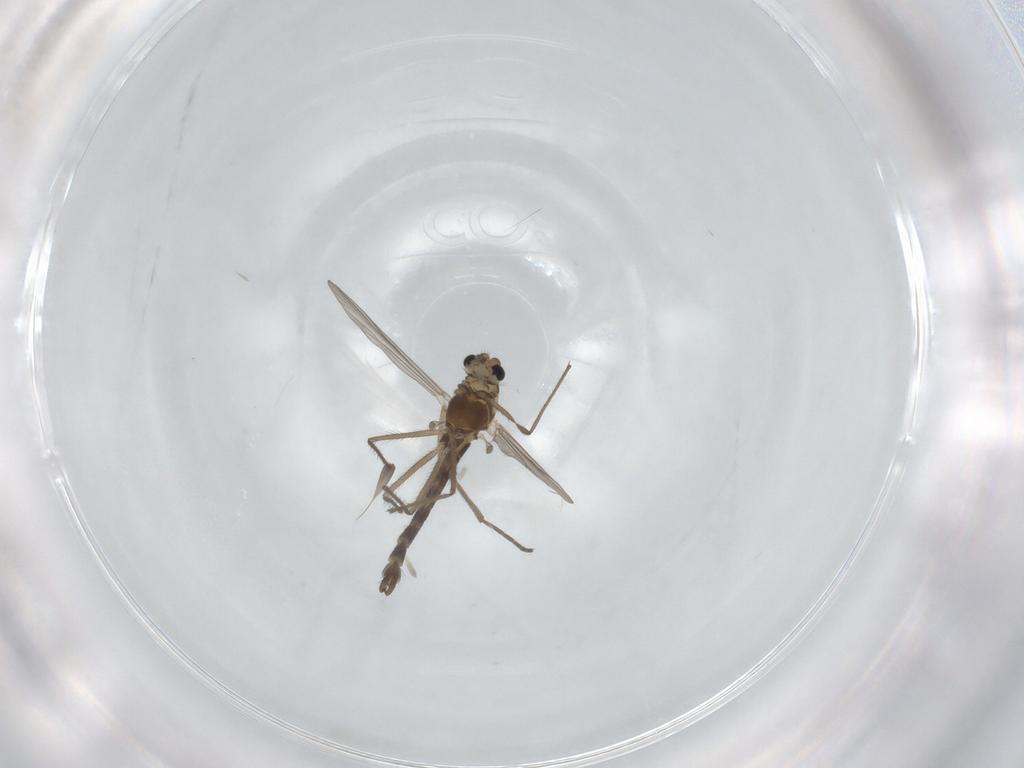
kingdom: Animalia
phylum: Arthropoda
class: Insecta
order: Diptera
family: Chironomidae
